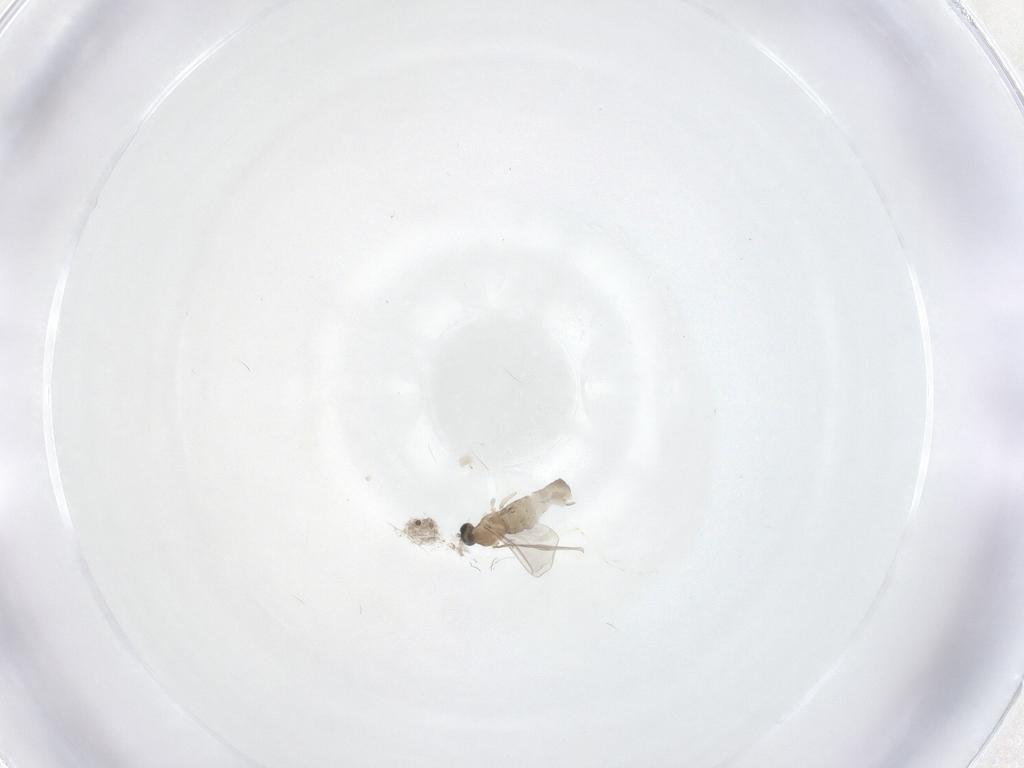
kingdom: Animalia
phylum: Arthropoda
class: Insecta
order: Diptera
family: Cecidomyiidae
